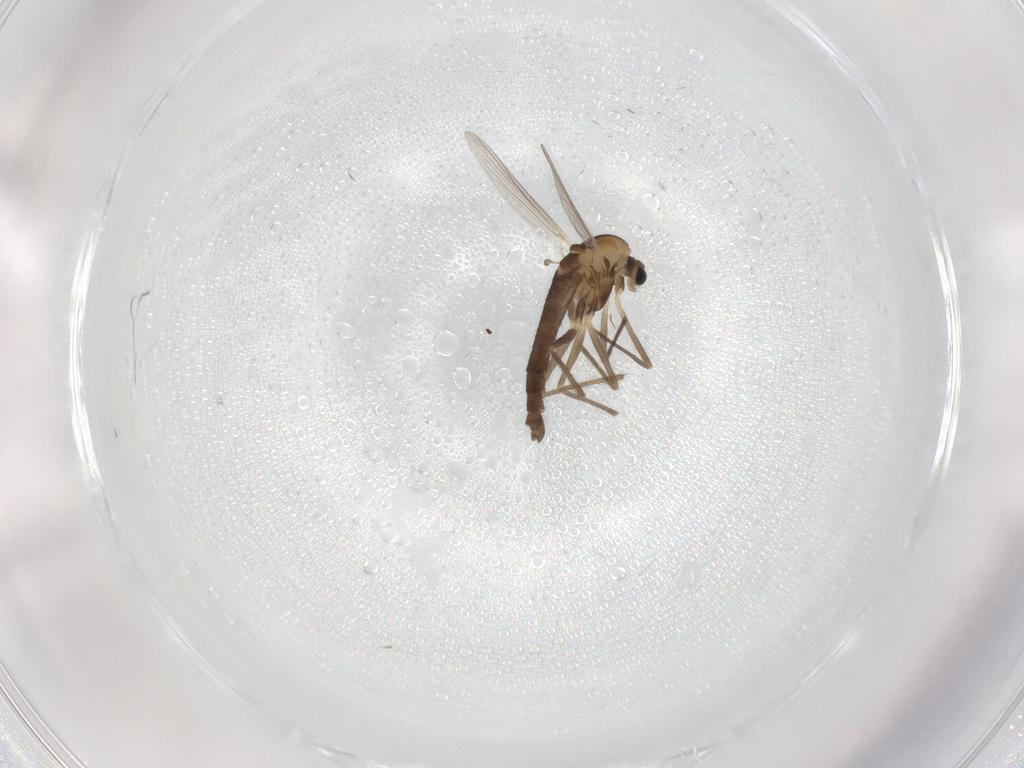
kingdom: Animalia
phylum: Arthropoda
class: Insecta
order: Diptera
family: Chironomidae
